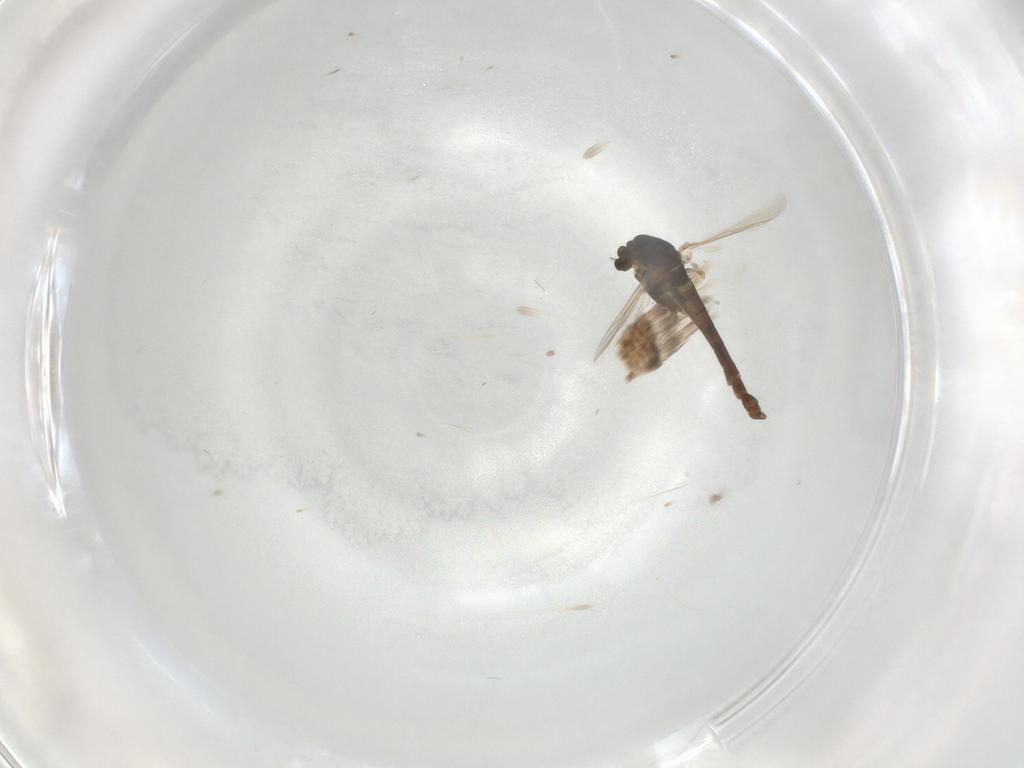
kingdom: Animalia
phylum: Arthropoda
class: Insecta
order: Diptera
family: Chironomidae
